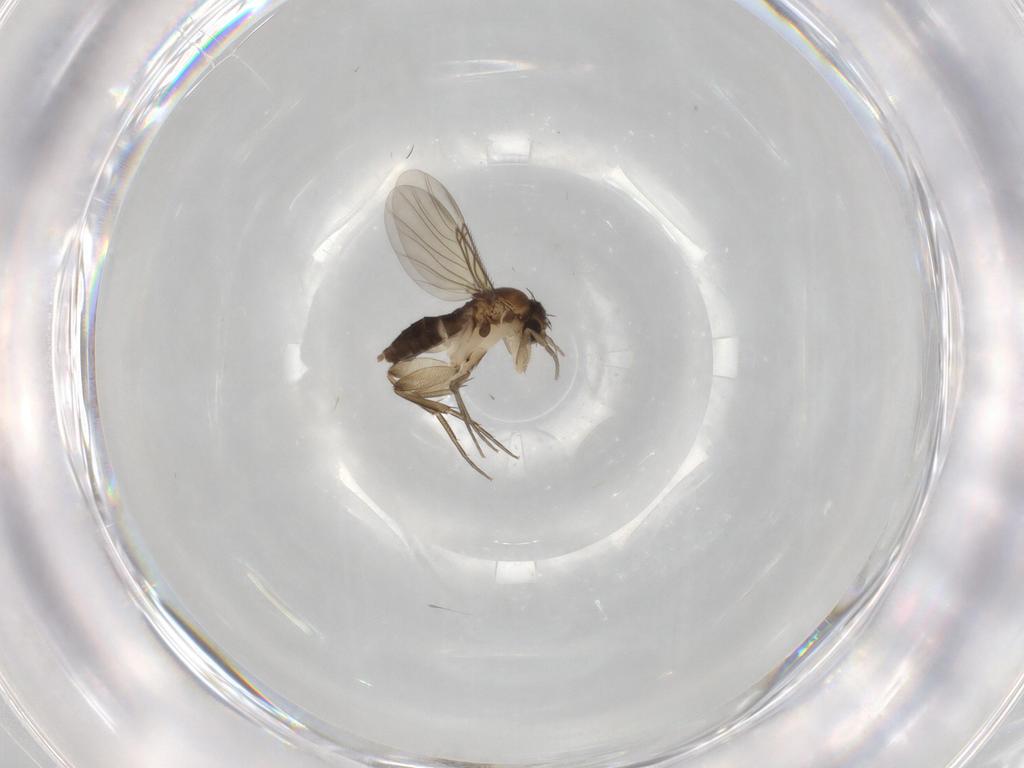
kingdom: Animalia
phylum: Arthropoda
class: Insecta
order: Diptera
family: Phoridae
